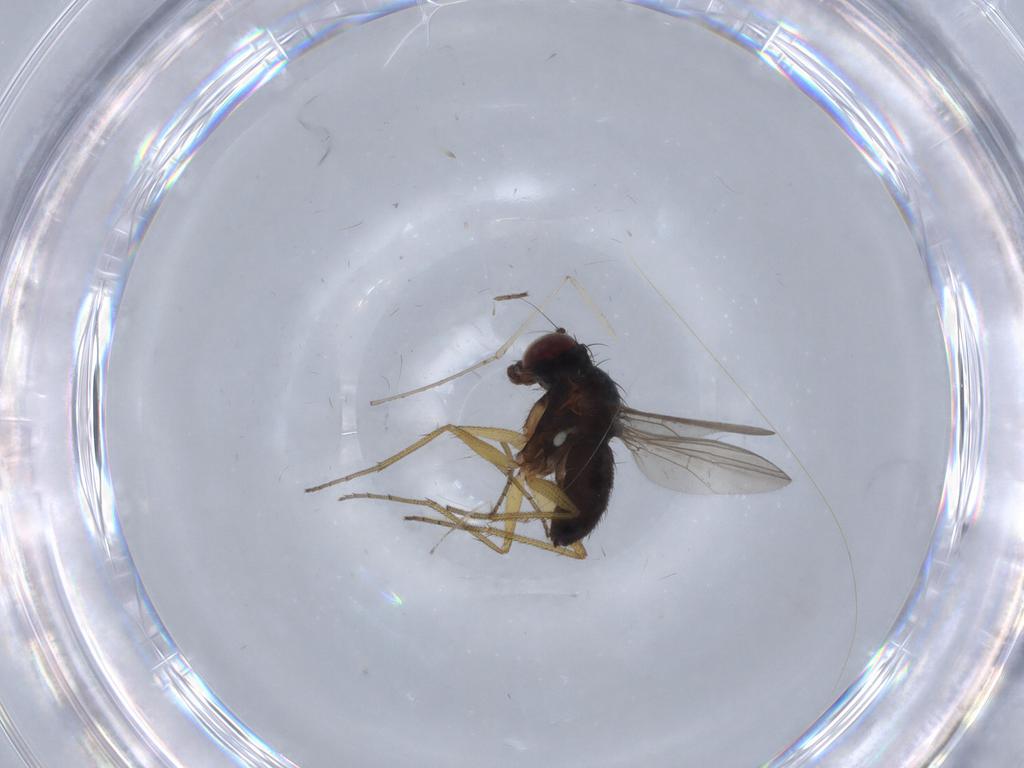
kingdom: Animalia
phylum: Arthropoda
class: Insecta
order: Diptera
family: Dolichopodidae
